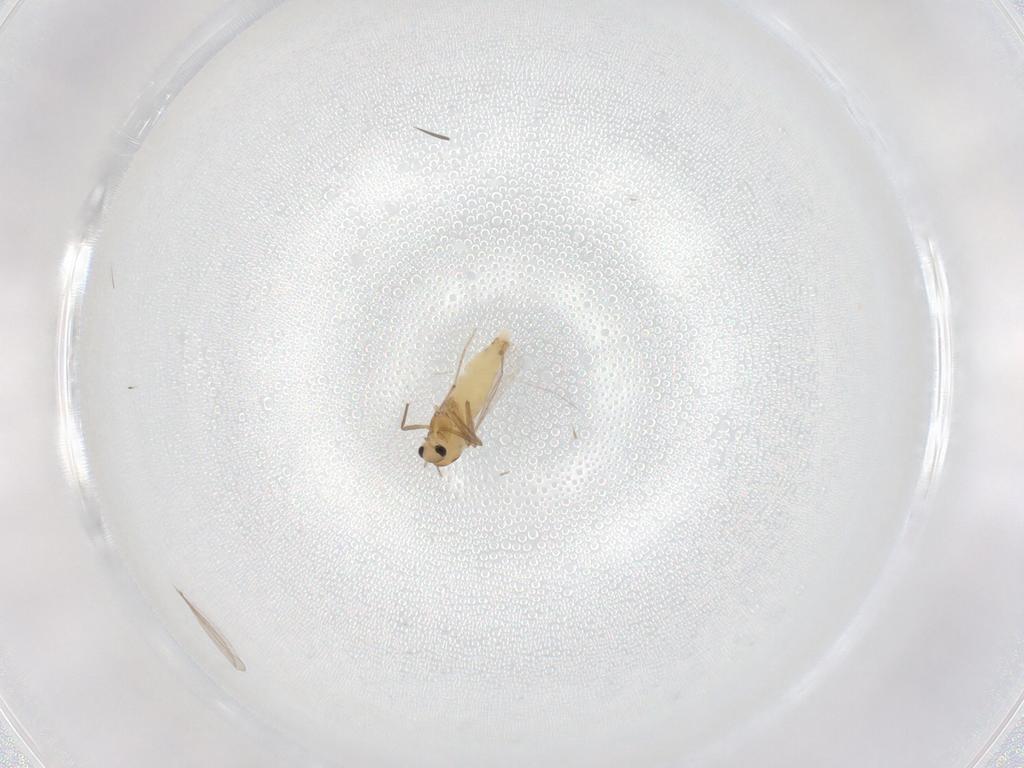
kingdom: Animalia
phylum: Arthropoda
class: Insecta
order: Diptera
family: Chironomidae
